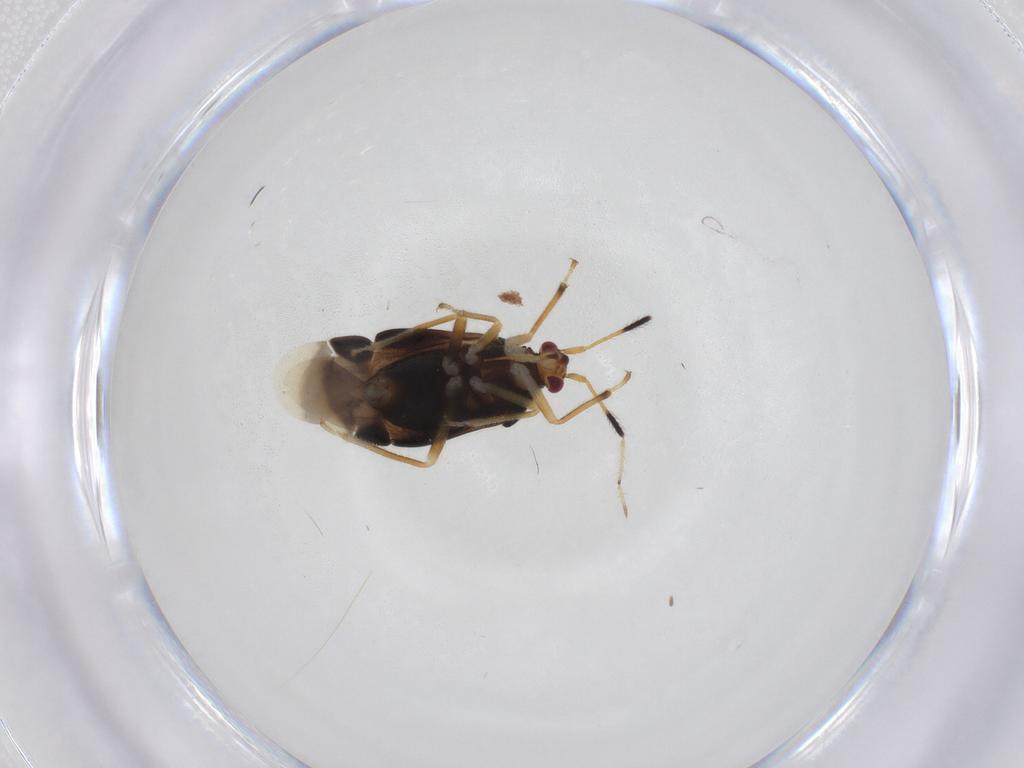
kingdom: Animalia
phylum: Arthropoda
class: Insecta
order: Hemiptera
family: Miridae
